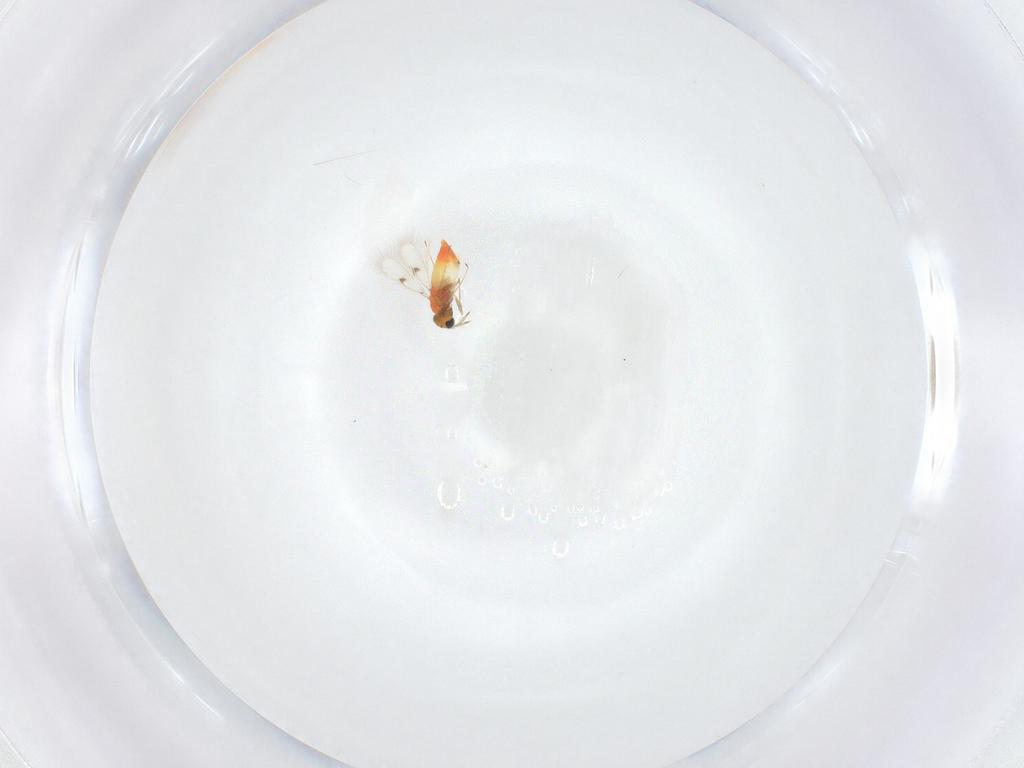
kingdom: Animalia
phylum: Arthropoda
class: Insecta
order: Hymenoptera
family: Trichogrammatidae
